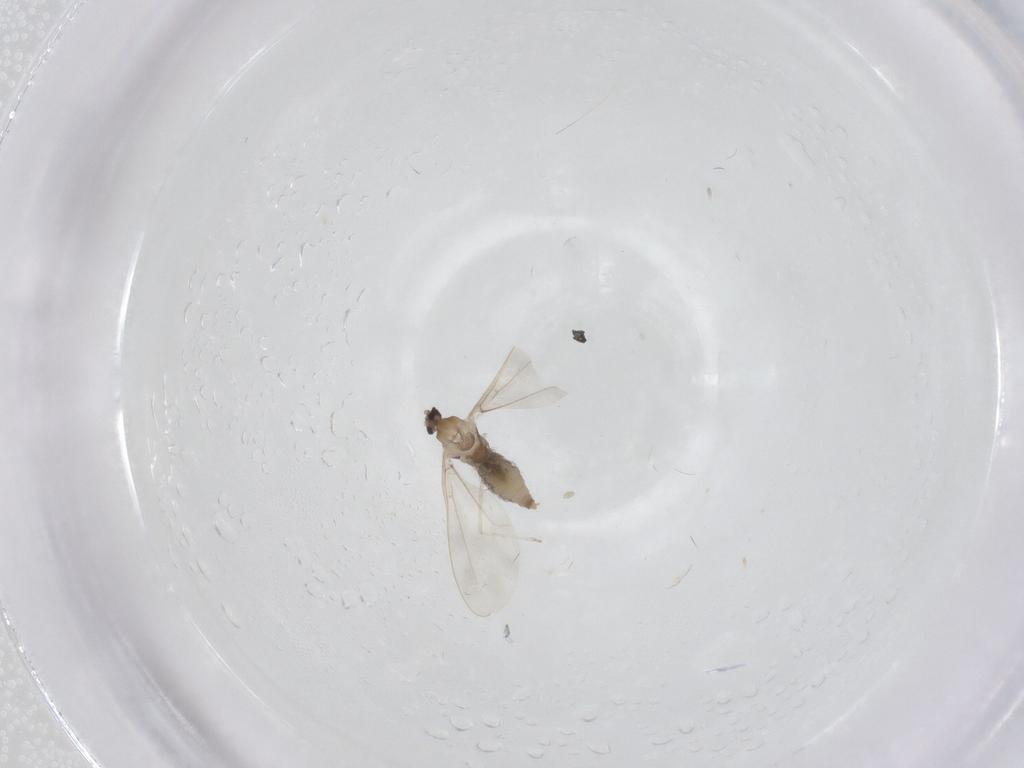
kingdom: Animalia
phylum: Arthropoda
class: Insecta
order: Diptera
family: Cecidomyiidae
